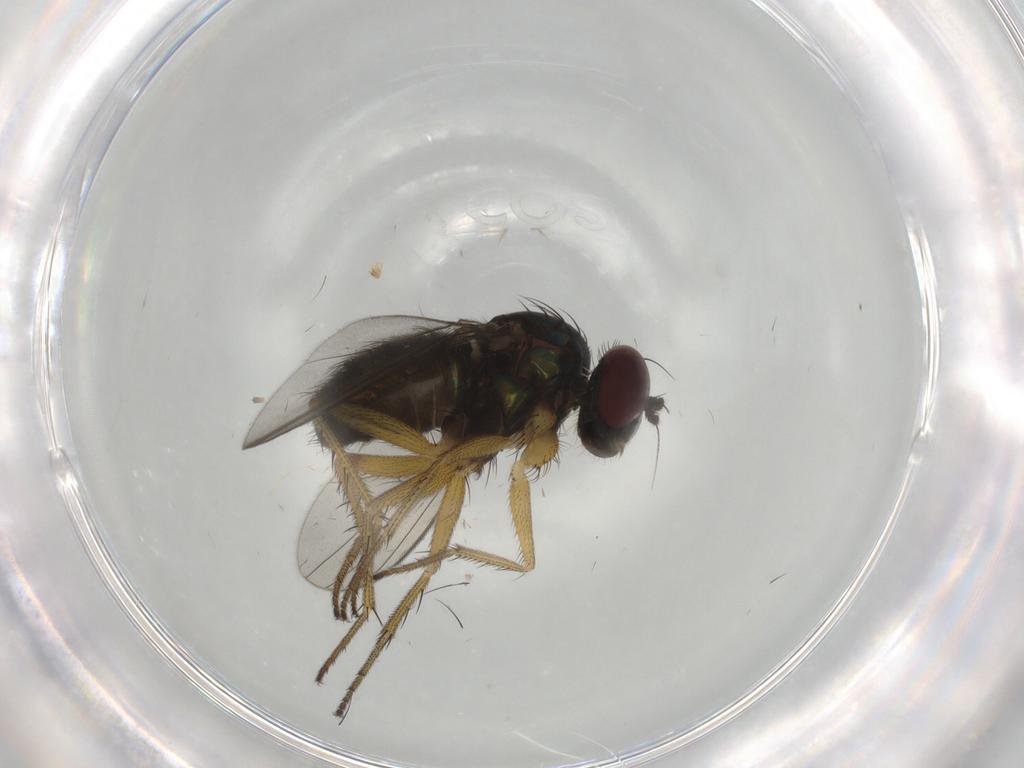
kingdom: Animalia
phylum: Arthropoda
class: Insecta
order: Diptera
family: Dolichopodidae
